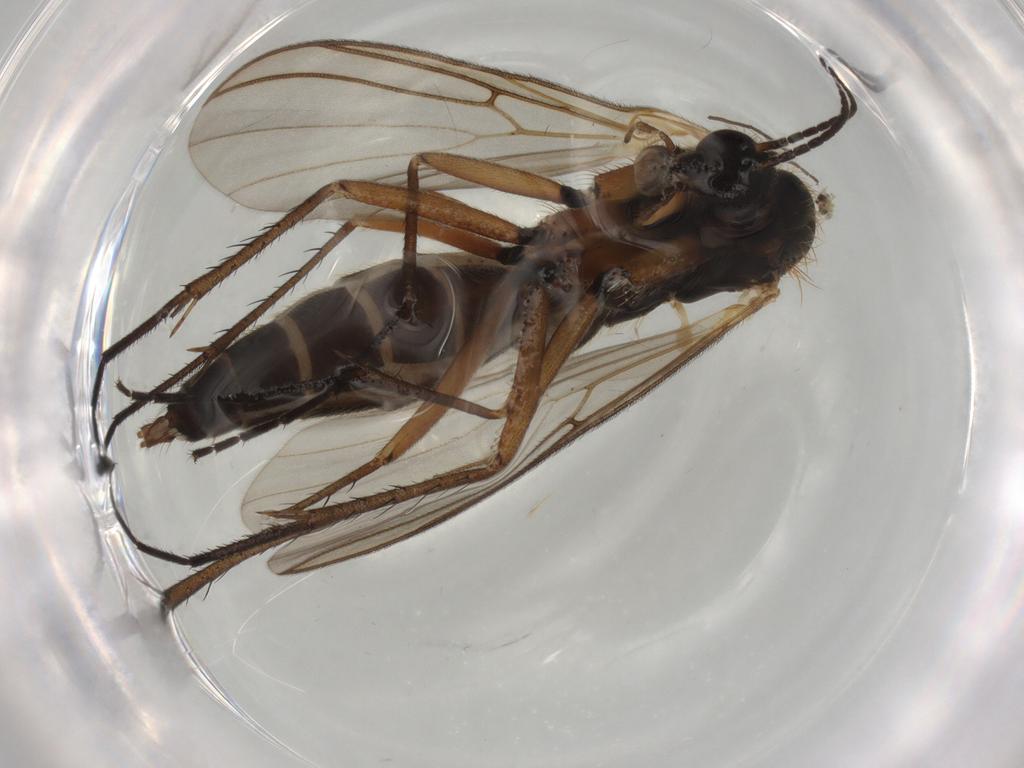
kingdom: Animalia
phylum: Arthropoda
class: Insecta
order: Diptera
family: Mycetophilidae
